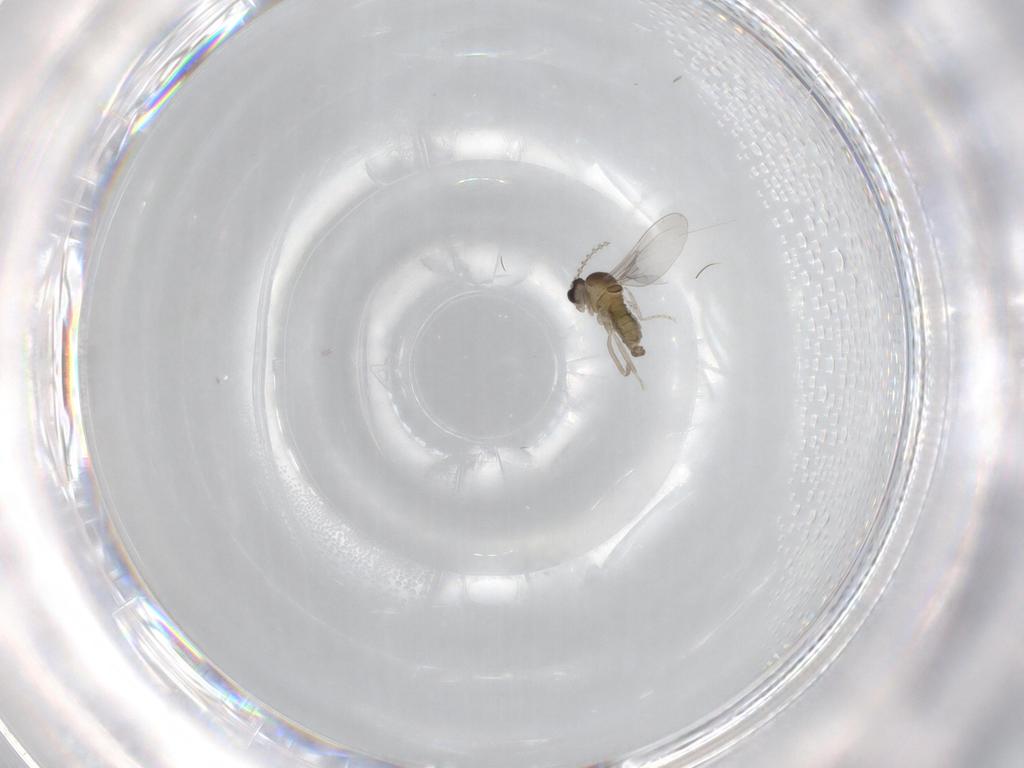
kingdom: Animalia
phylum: Arthropoda
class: Insecta
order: Diptera
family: Cecidomyiidae
